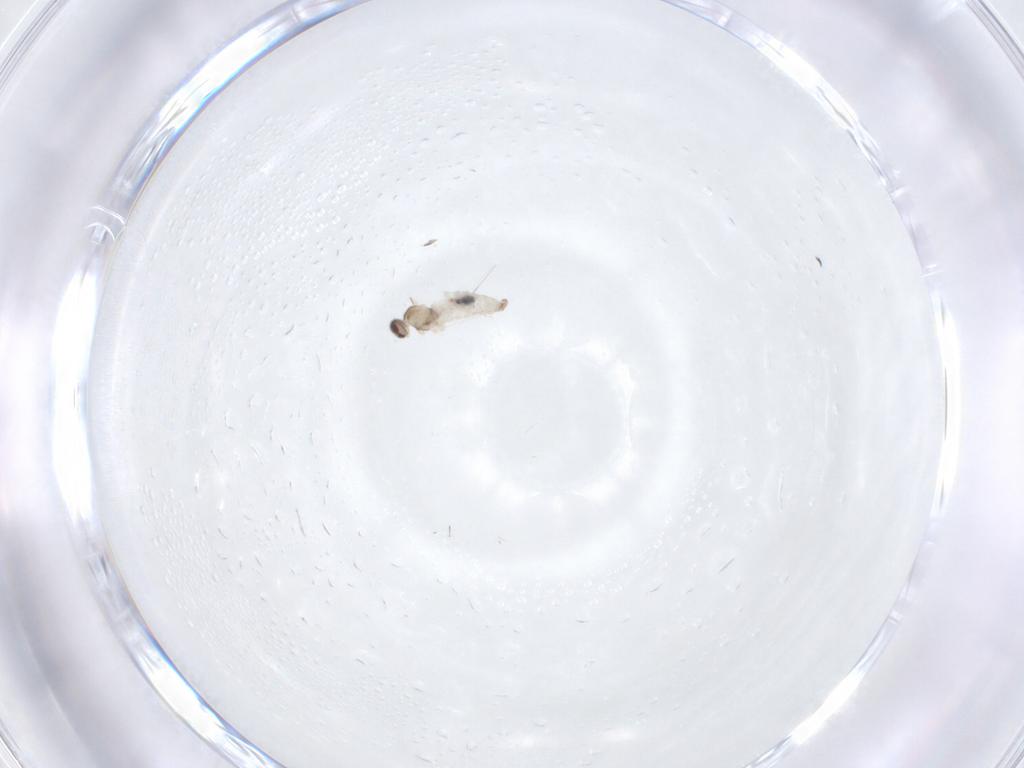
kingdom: Animalia
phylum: Arthropoda
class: Insecta
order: Diptera
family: Cecidomyiidae
